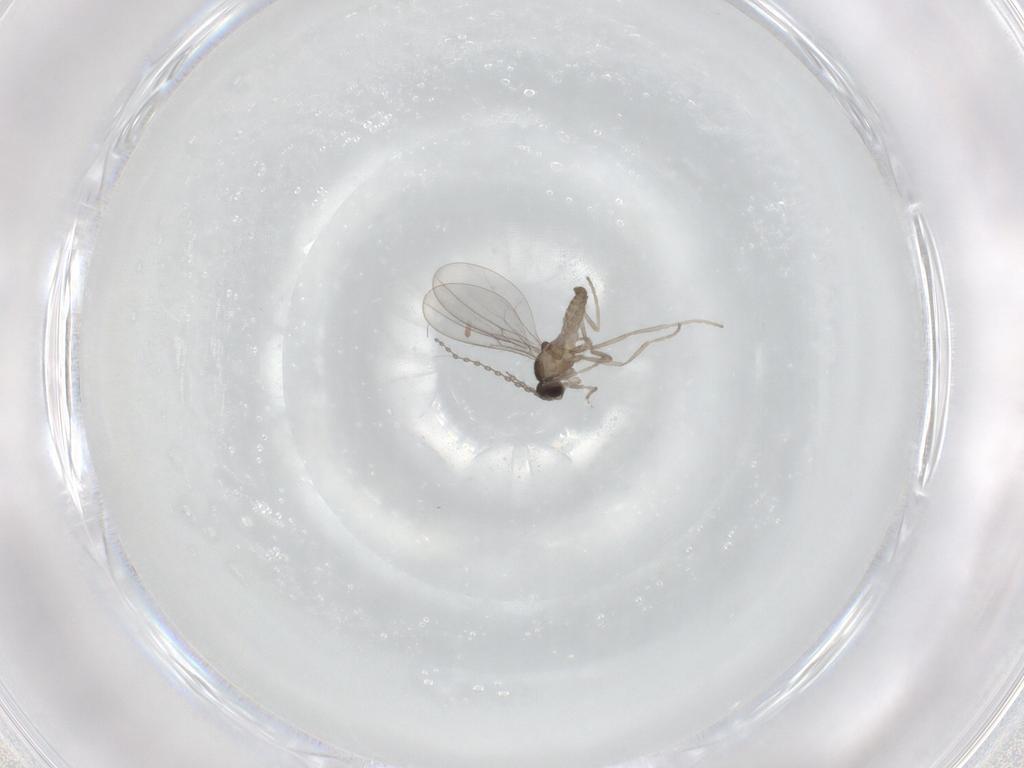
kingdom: Animalia
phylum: Arthropoda
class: Insecta
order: Diptera
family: Cecidomyiidae
